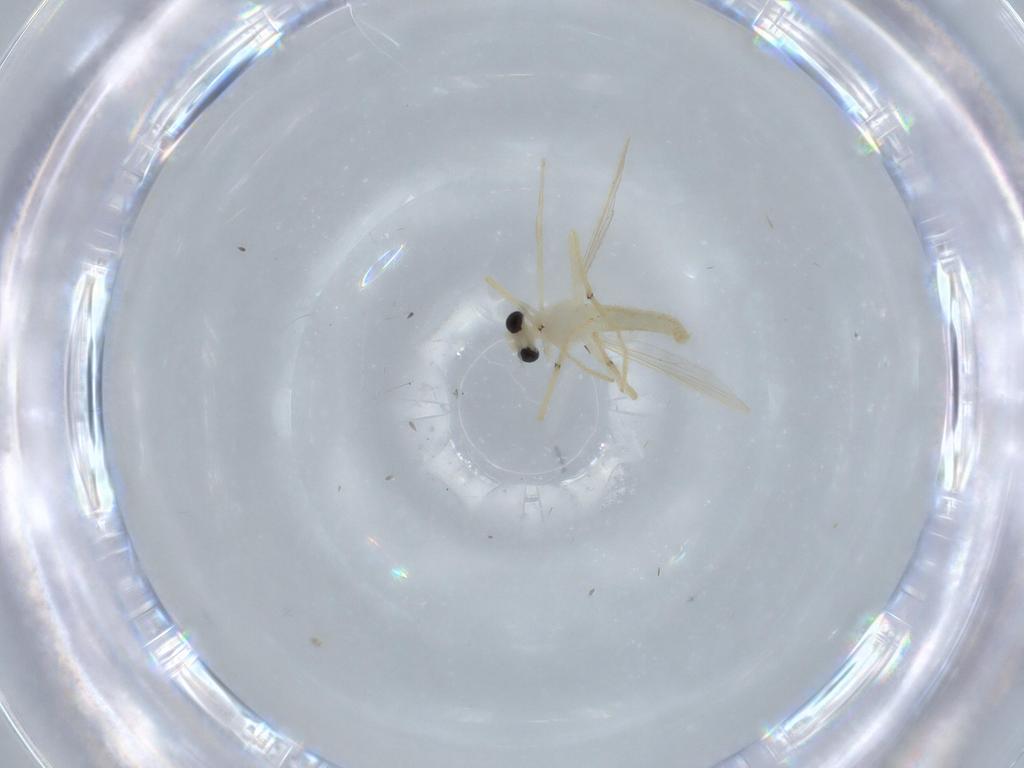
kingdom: Animalia
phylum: Arthropoda
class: Insecta
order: Diptera
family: Chironomidae
